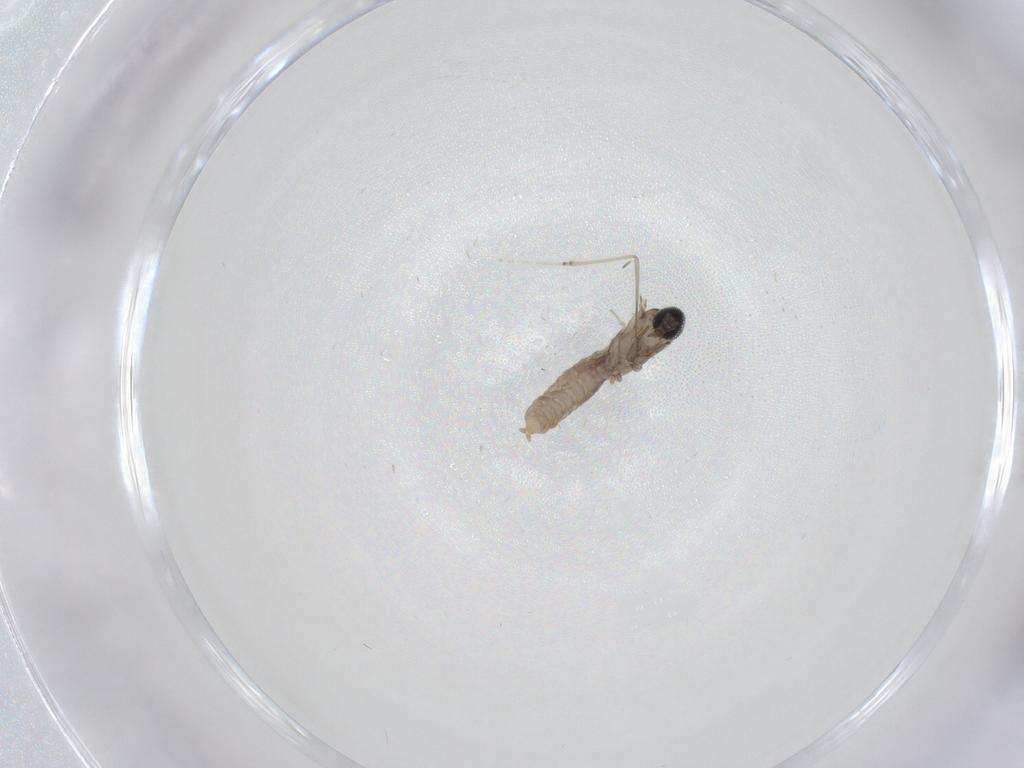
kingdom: Animalia
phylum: Arthropoda
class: Insecta
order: Diptera
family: Cecidomyiidae
